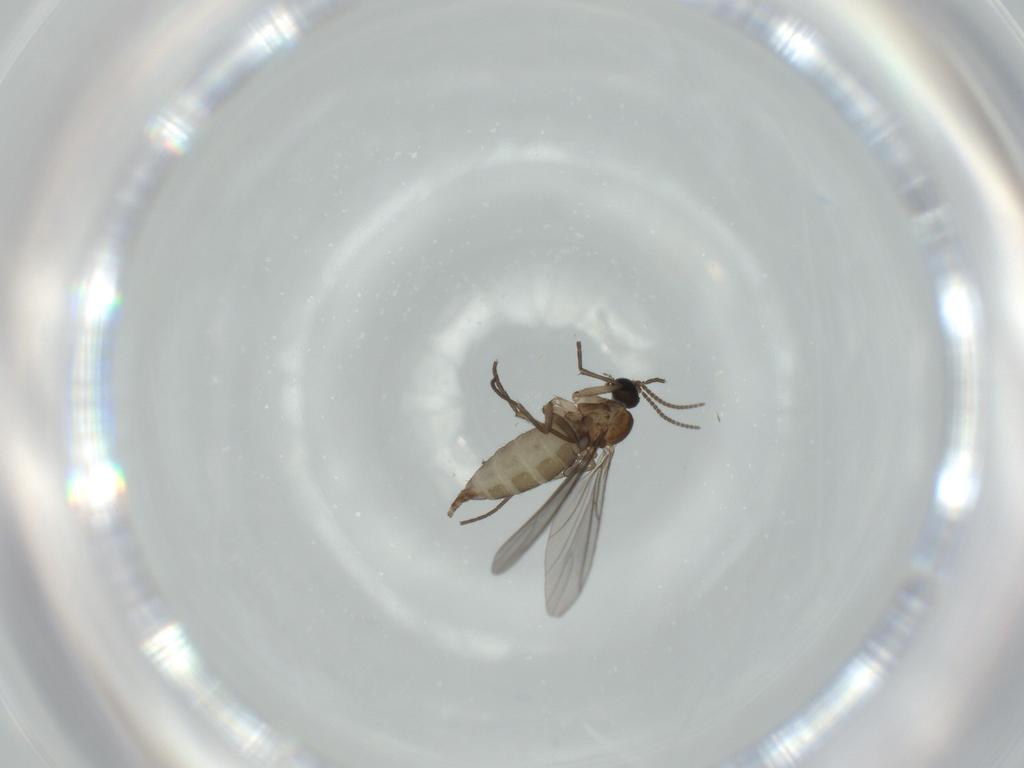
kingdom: Animalia
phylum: Arthropoda
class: Insecta
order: Diptera
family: Sciaridae
